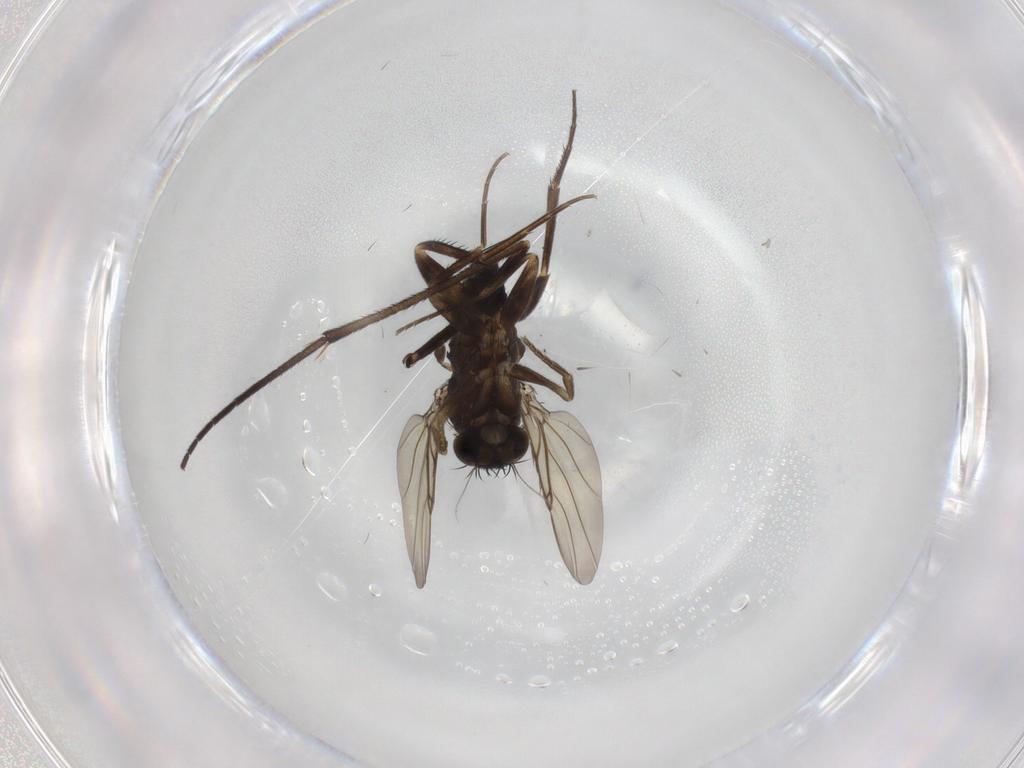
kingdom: Animalia
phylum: Arthropoda
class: Insecta
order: Diptera
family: Phoridae
